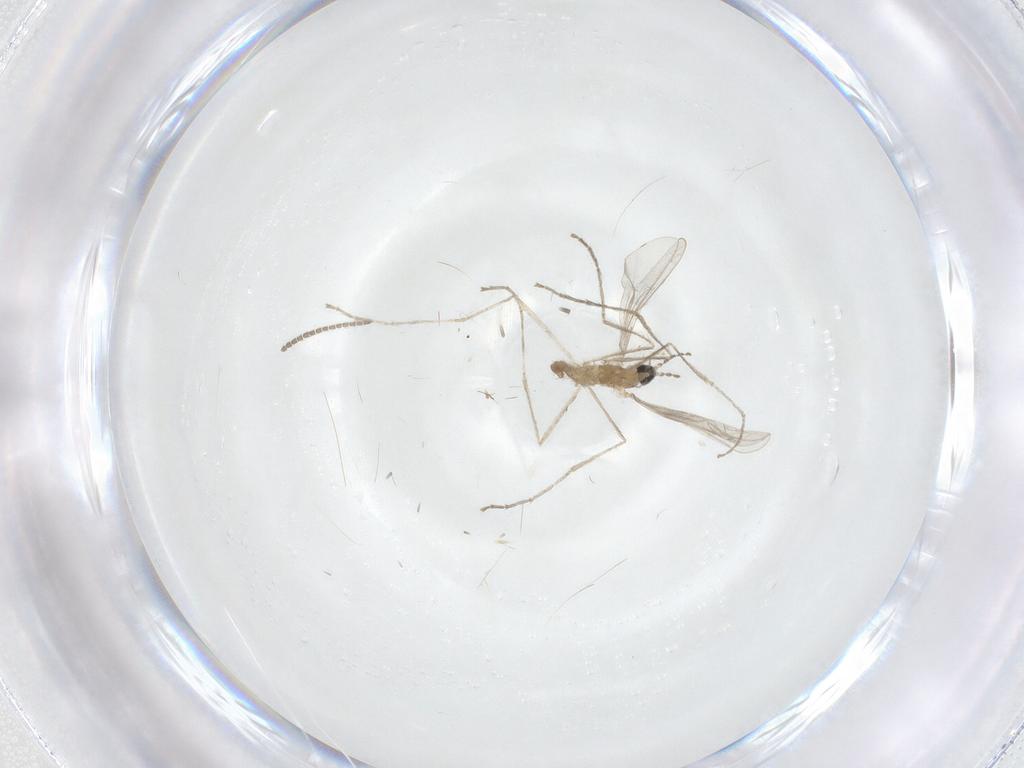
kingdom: Animalia
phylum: Arthropoda
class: Insecta
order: Diptera
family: Cecidomyiidae
